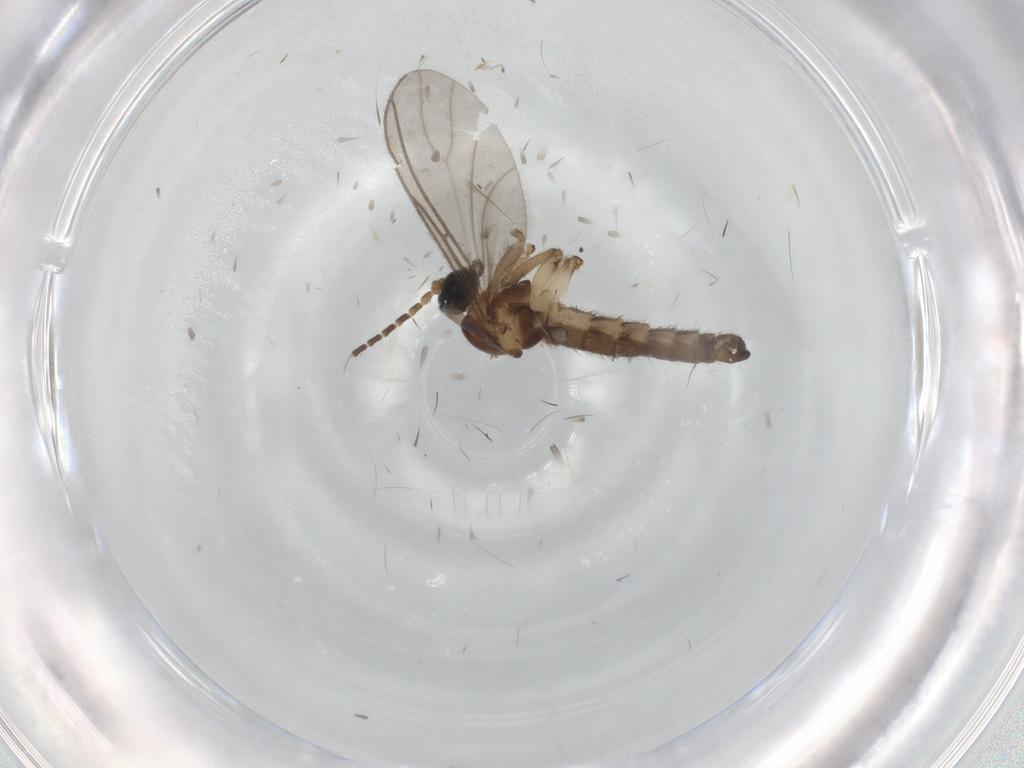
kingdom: Animalia
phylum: Arthropoda
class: Insecta
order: Diptera
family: Sciaridae
